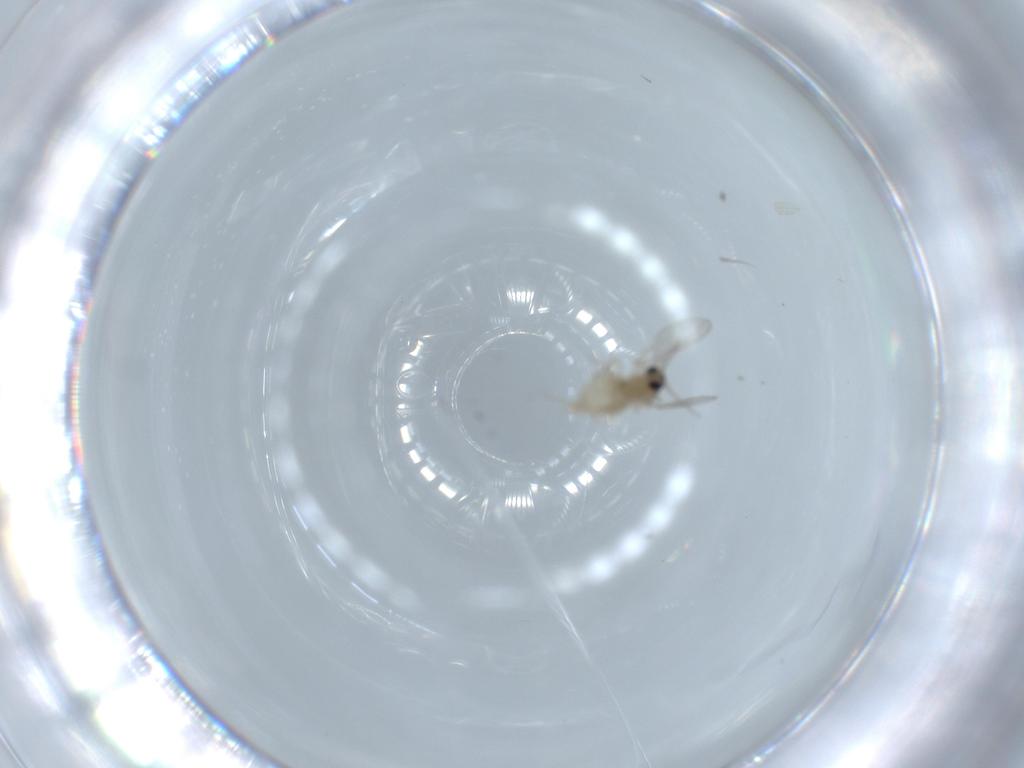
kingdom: Animalia
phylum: Arthropoda
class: Insecta
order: Diptera
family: Cecidomyiidae
